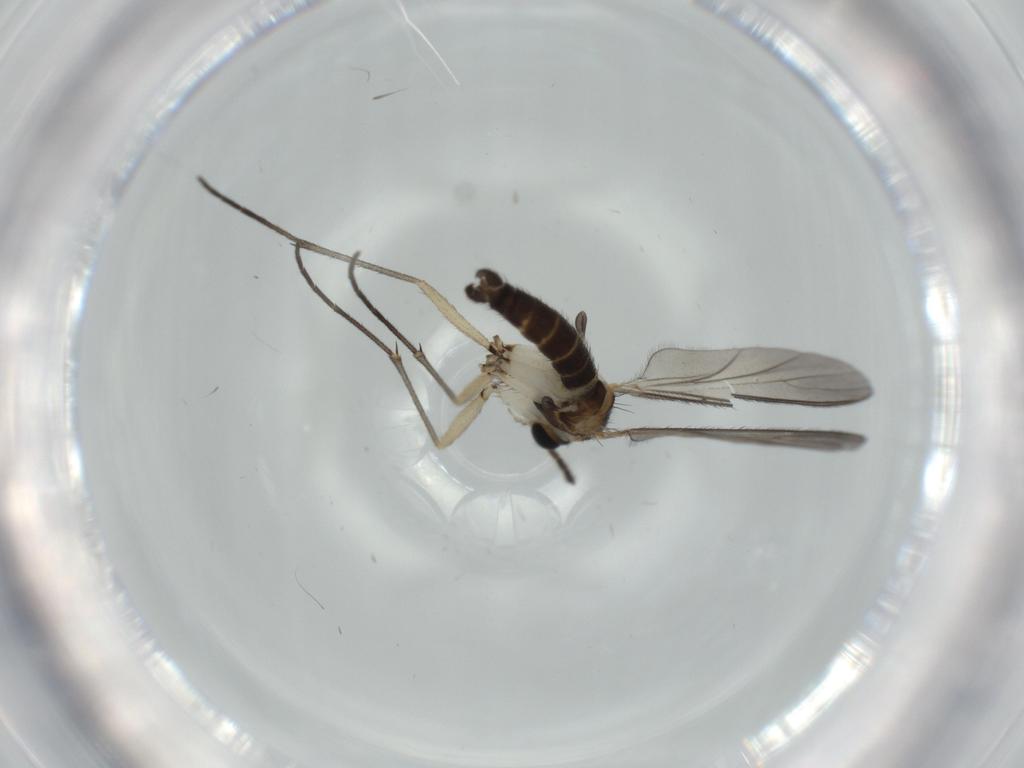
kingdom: Animalia
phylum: Arthropoda
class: Insecta
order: Diptera
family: Sciaridae
